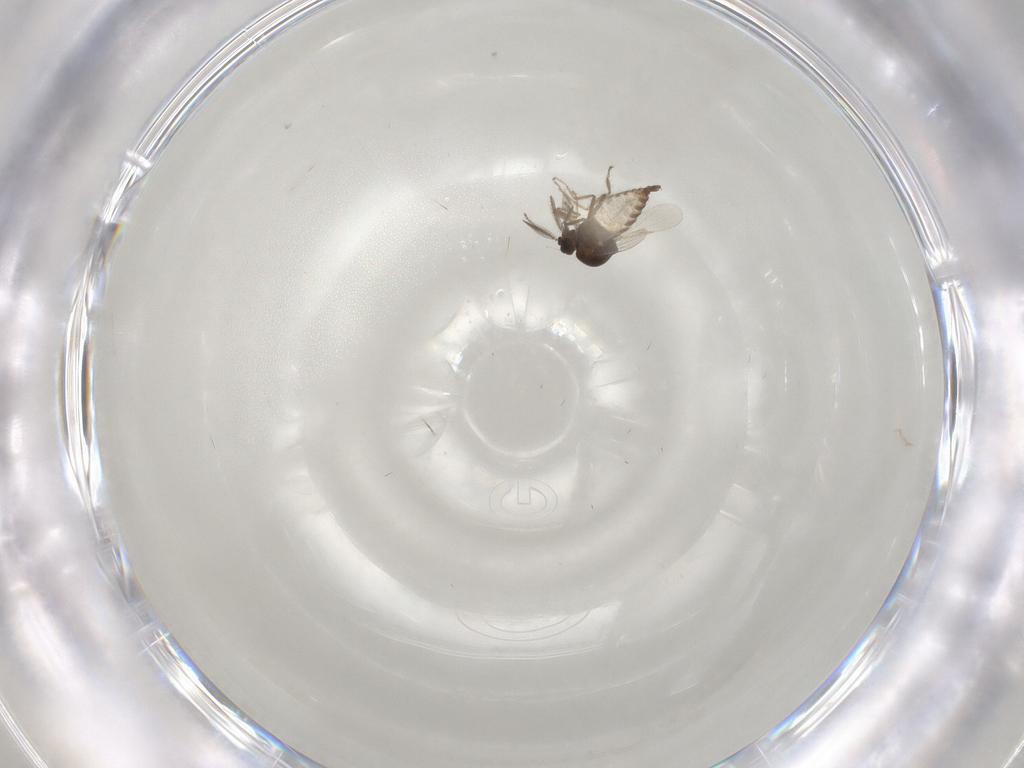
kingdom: Animalia
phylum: Arthropoda
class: Insecta
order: Diptera
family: Ceratopogonidae
